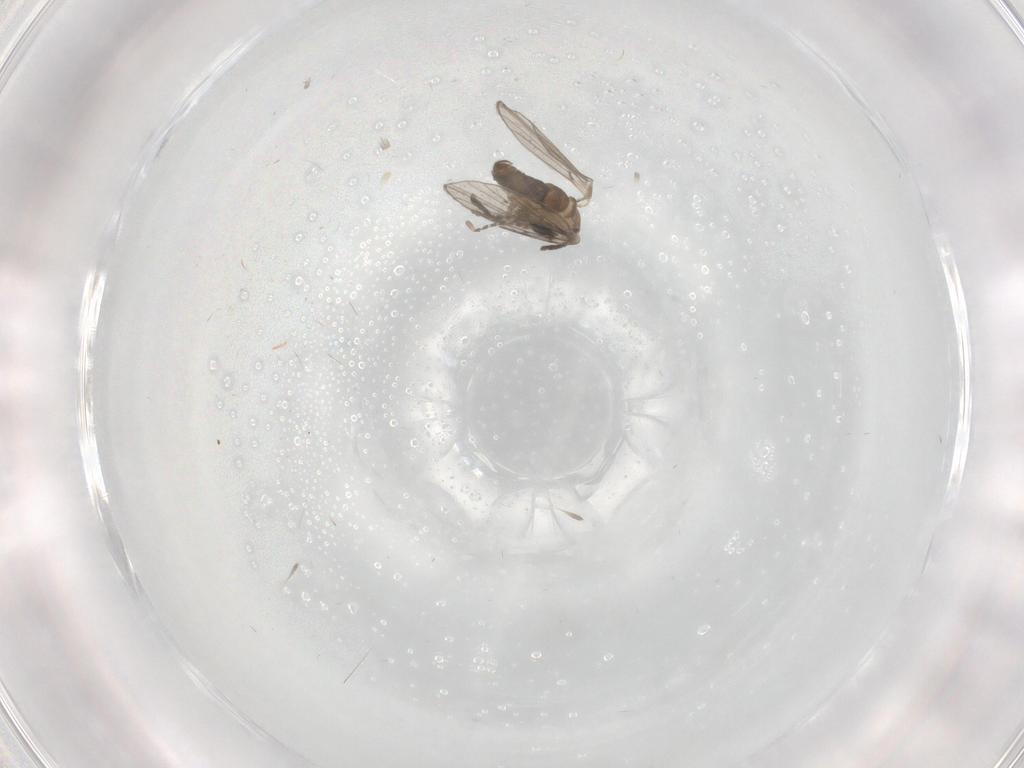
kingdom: Animalia
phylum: Arthropoda
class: Insecta
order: Diptera
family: Psychodidae
